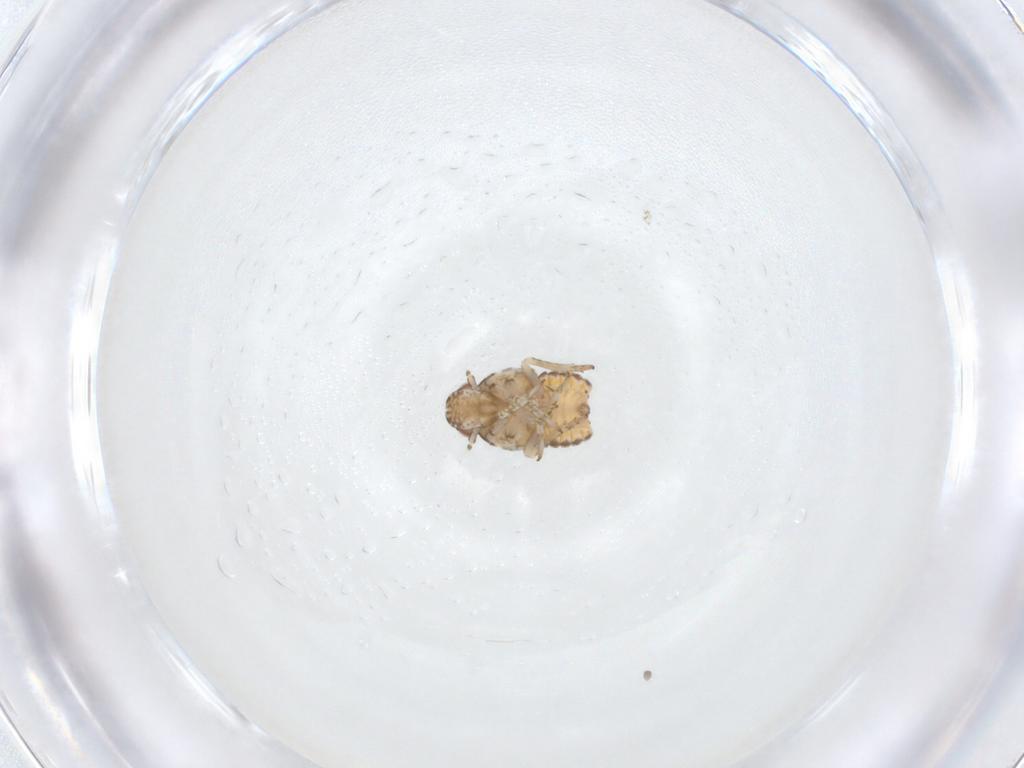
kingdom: Animalia
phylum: Arthropoda
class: Insecta
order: Hemiptera
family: Flatidae
